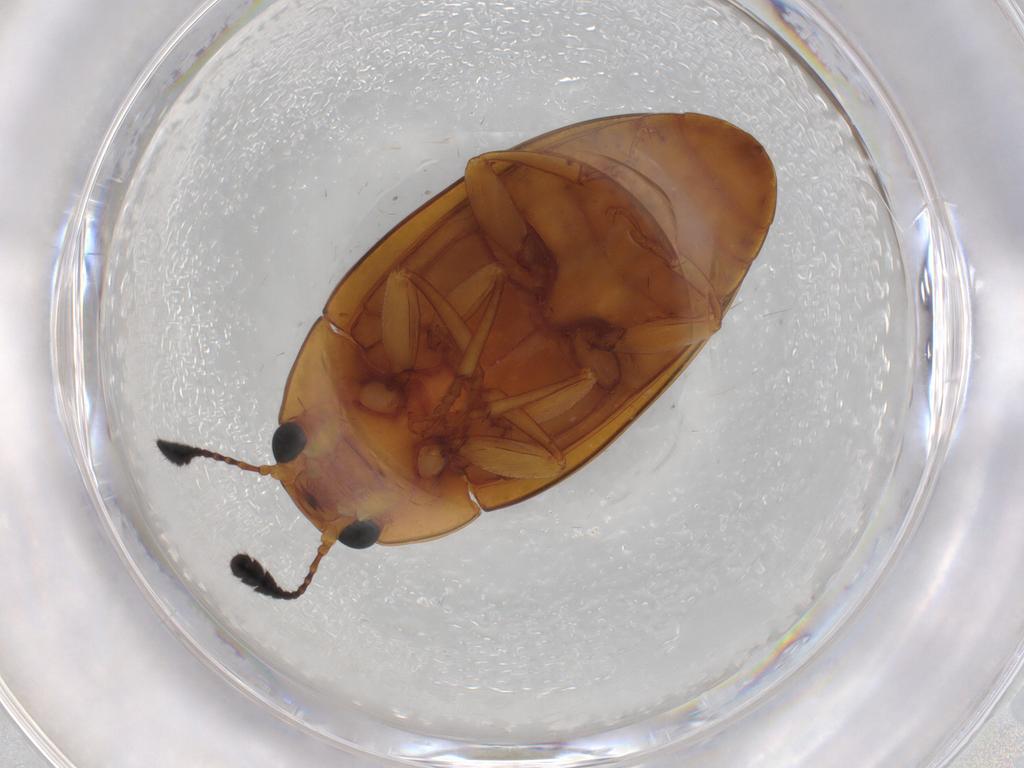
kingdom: Animalia
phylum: Arthropoda
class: Insecta
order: Coleoptera
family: Erotylidae
